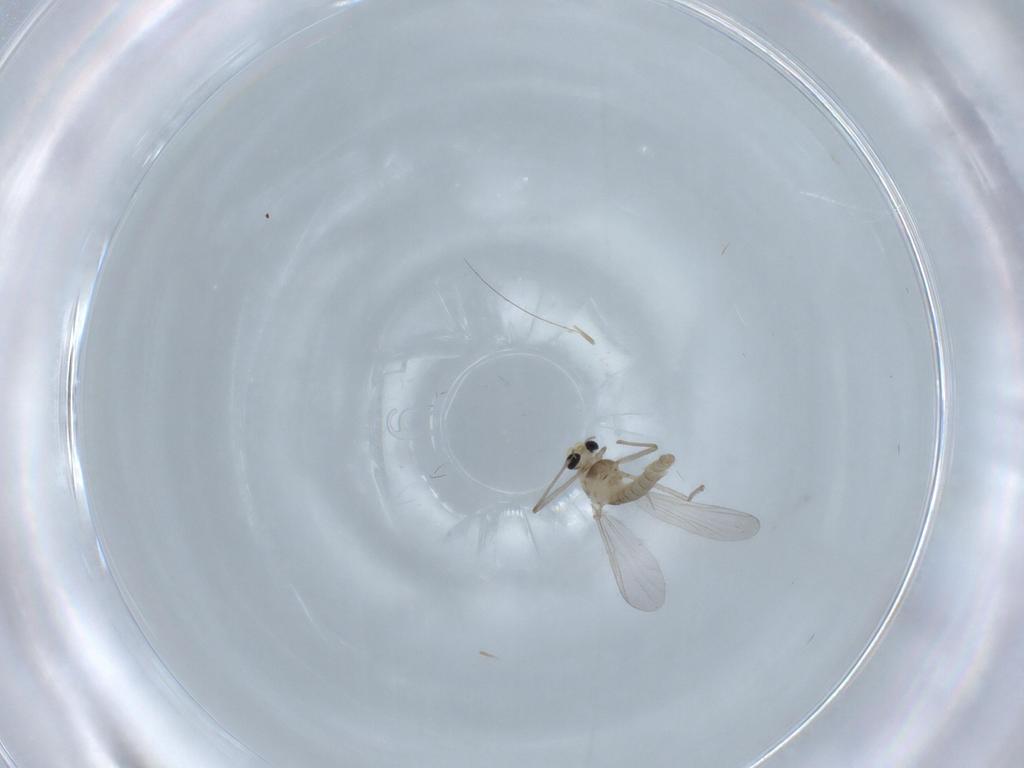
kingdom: Animalia
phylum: Arthropoda
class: Insecta
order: Diptera
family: Chironomidae
